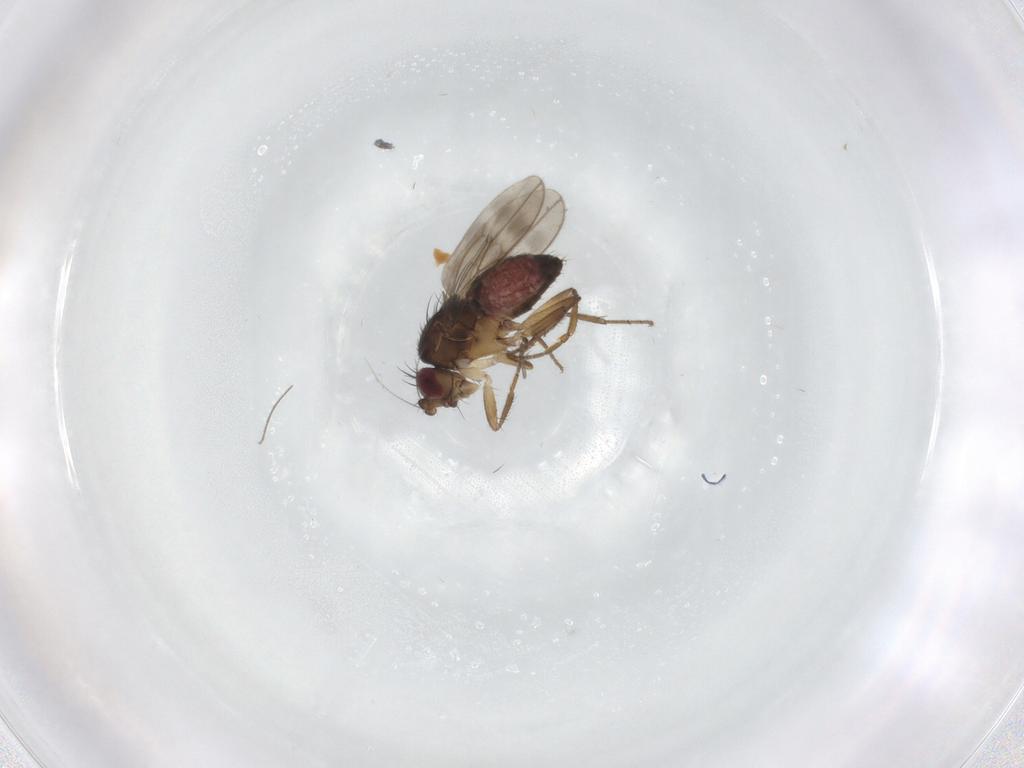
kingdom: Animalia
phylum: Arthropoda
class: Insecta
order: Diptera
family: Sphaeroceridae
